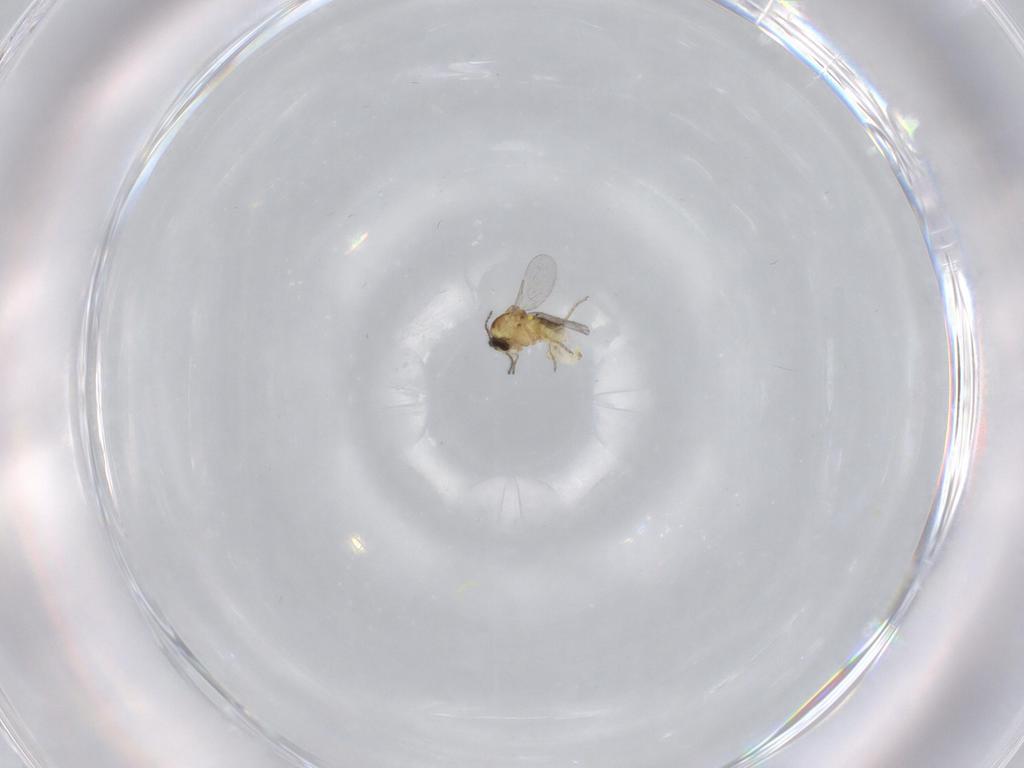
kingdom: Animalia
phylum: Arthropoda
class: Insecta
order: Diptera
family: Ceratopogonidae
